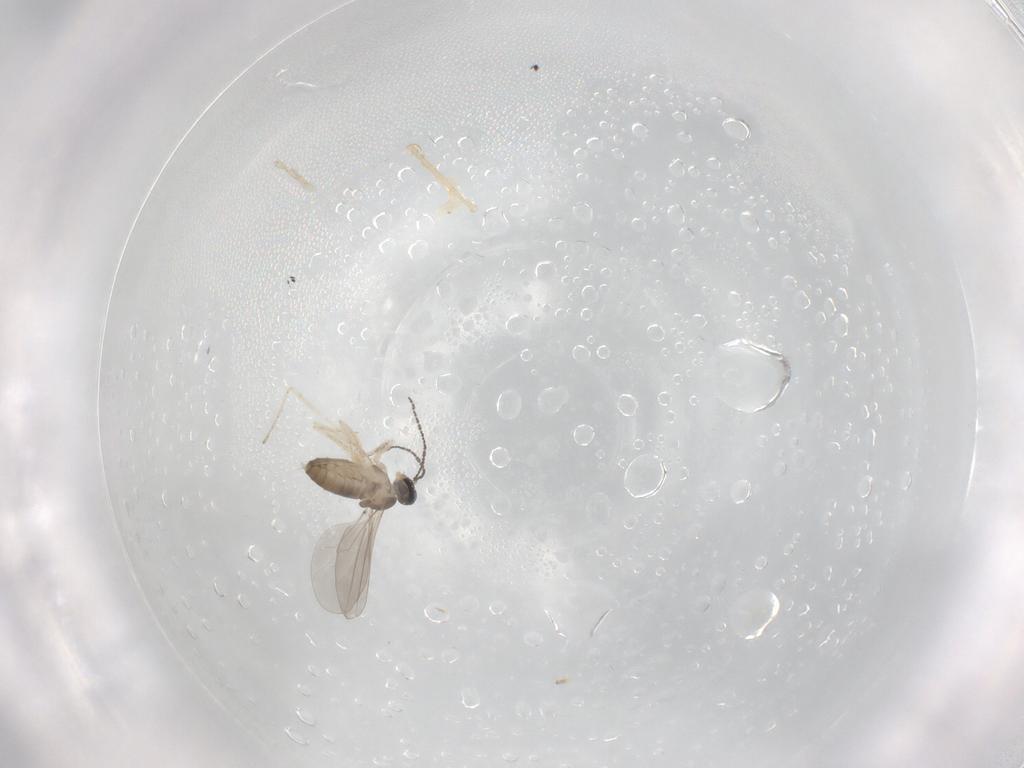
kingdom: Animalia
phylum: Arthropoda
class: Insecta
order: Diptera
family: Cecidomyiidae
